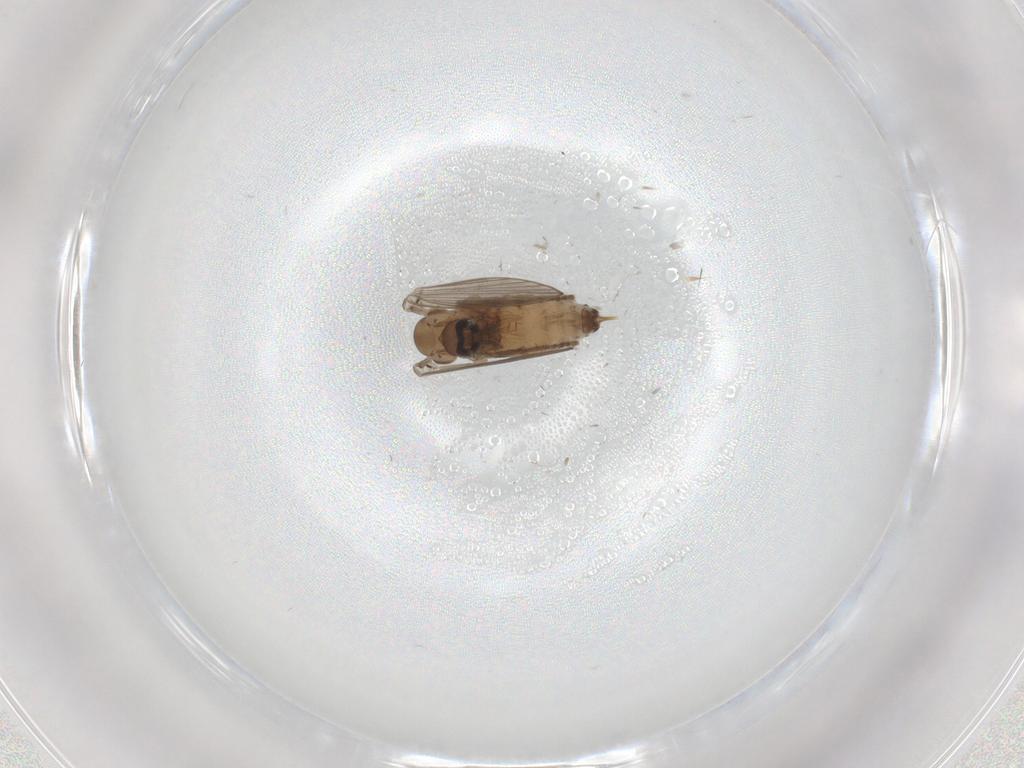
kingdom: Animalia
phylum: Arthropoda
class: Insecta
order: Diptera
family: Psychodidae
